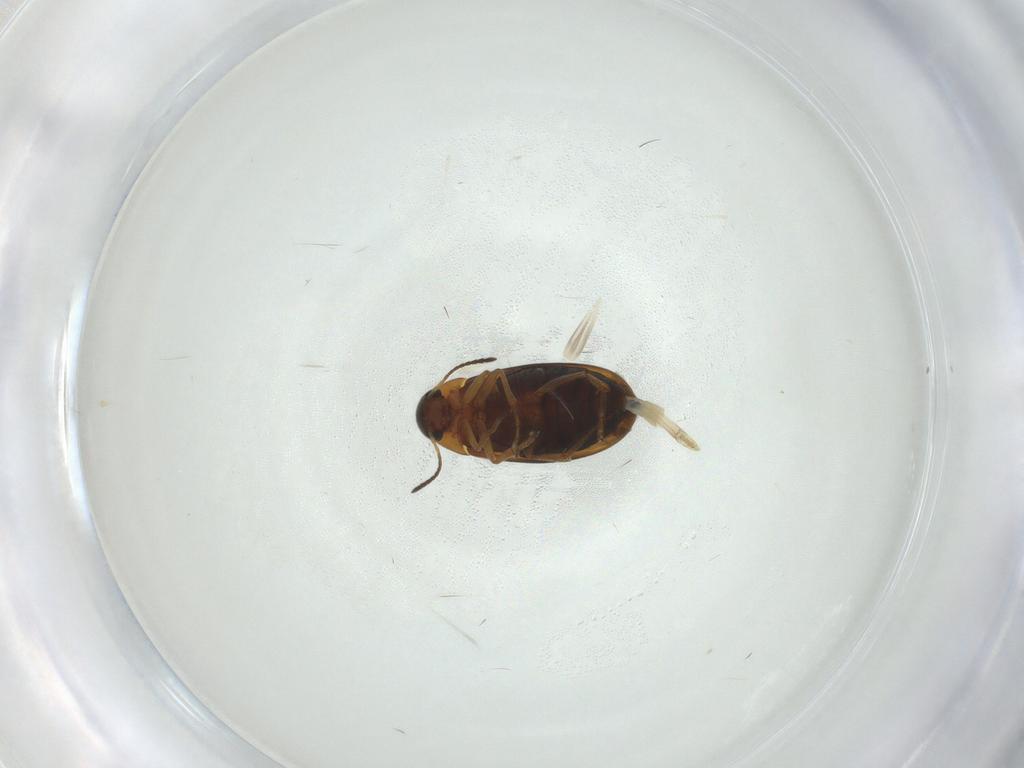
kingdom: Animalia
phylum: Arthropoda
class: Insecta
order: Coleoptera
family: Scraptiidae
